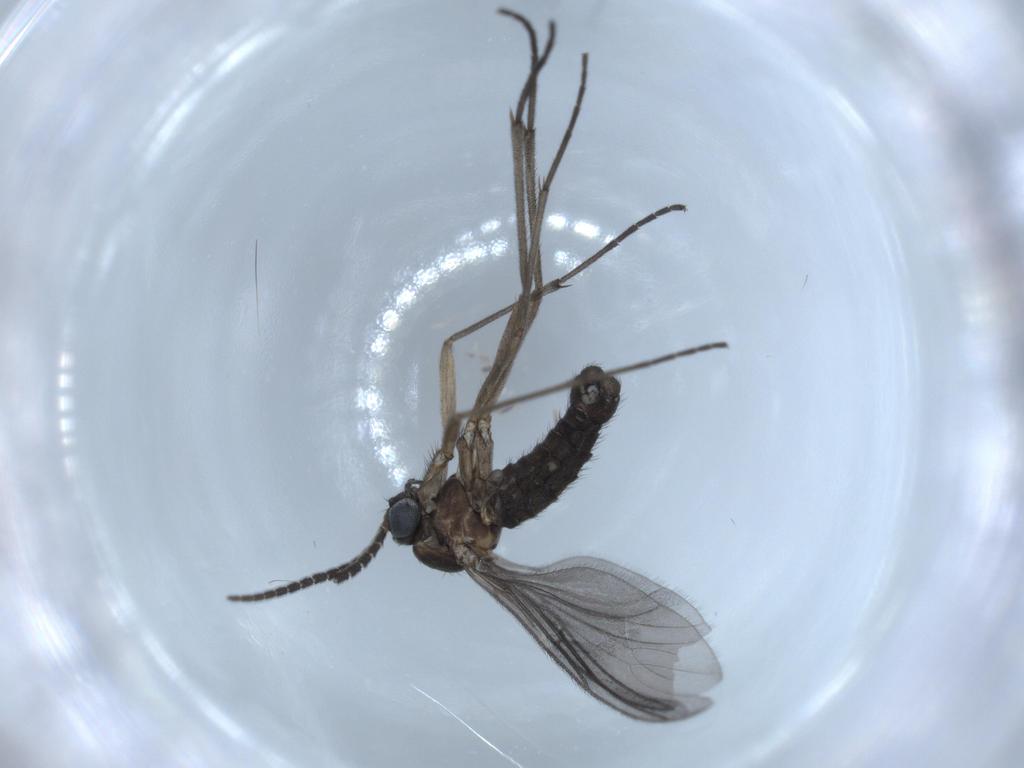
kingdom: Animalia
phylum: Arthropoda
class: Insecta
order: Diptera
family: Sciaridae
